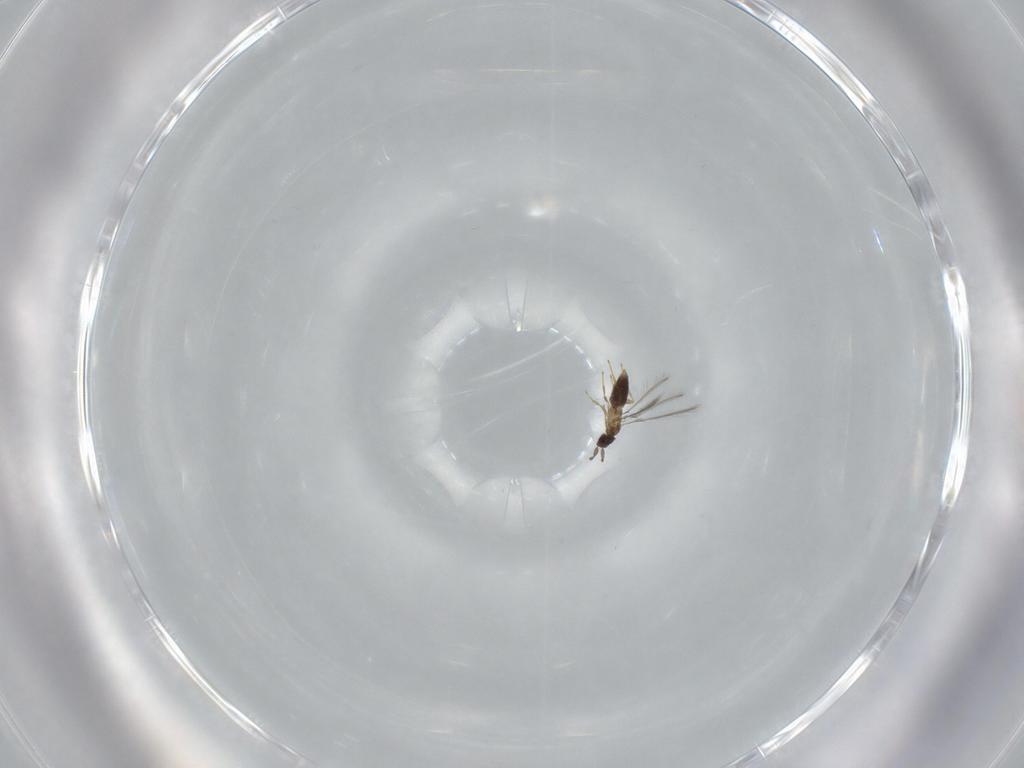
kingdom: Animalia
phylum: Arthropoda
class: Insecta
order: Hymenoptera
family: Mymaridae
